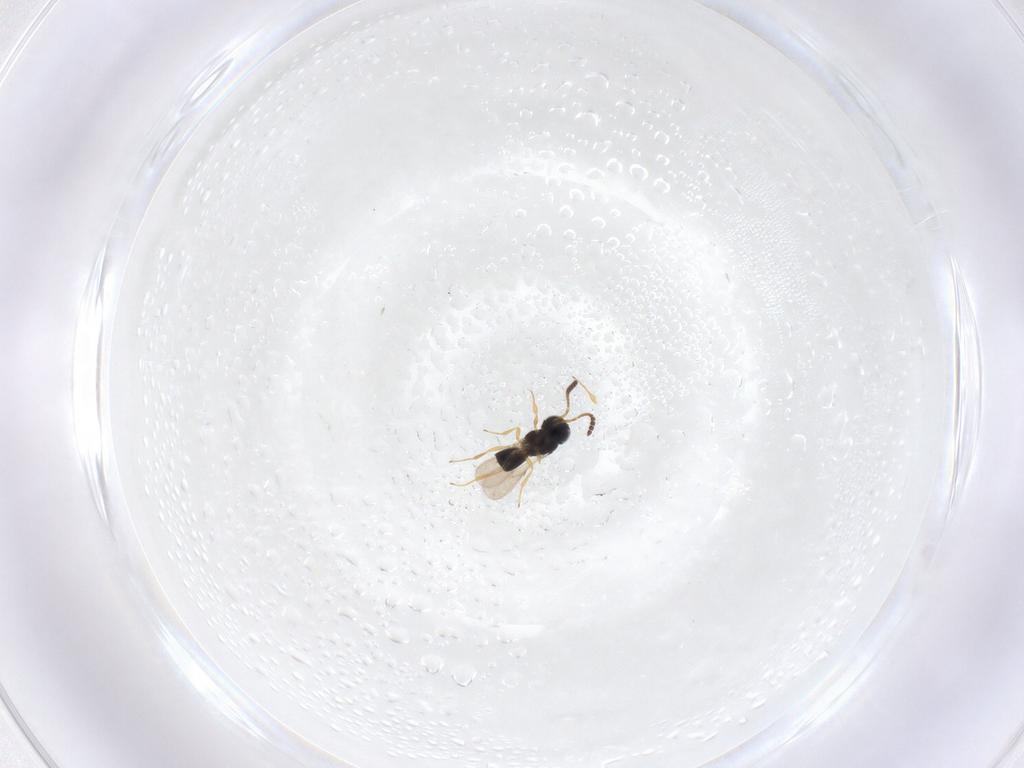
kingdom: Animalia
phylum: Arthropoda
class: Insecta
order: Hymenoptera
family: Scelionidae
